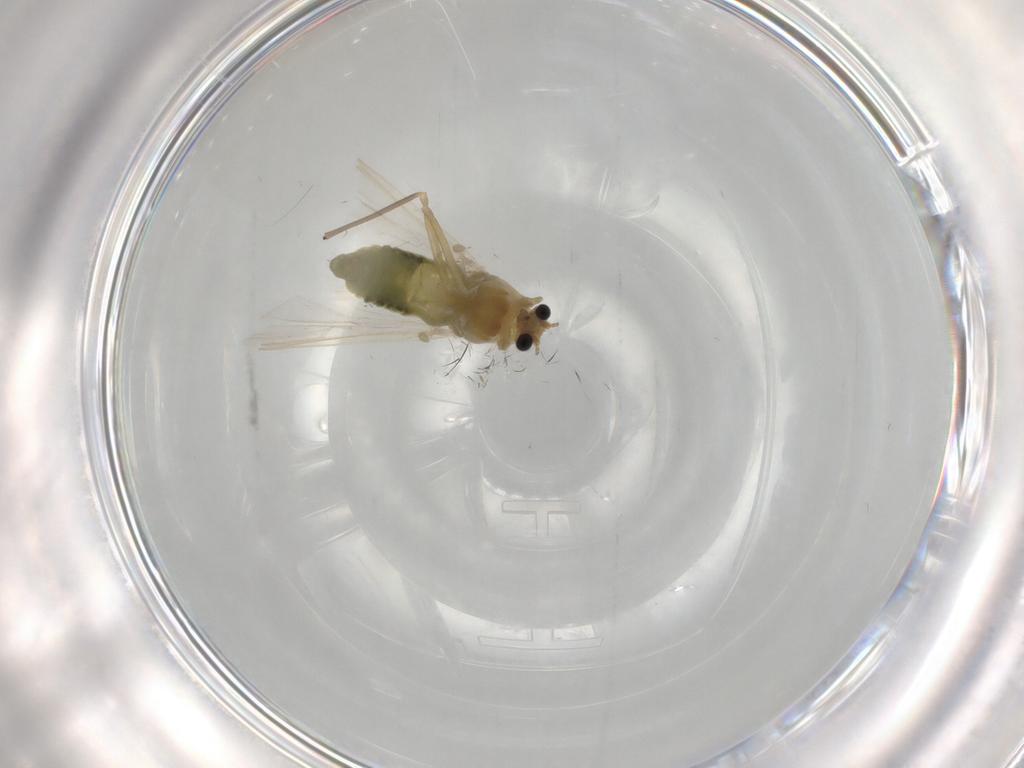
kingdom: Animalia
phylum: Arthropoda
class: Insecta
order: Diptera
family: Chironomidae
